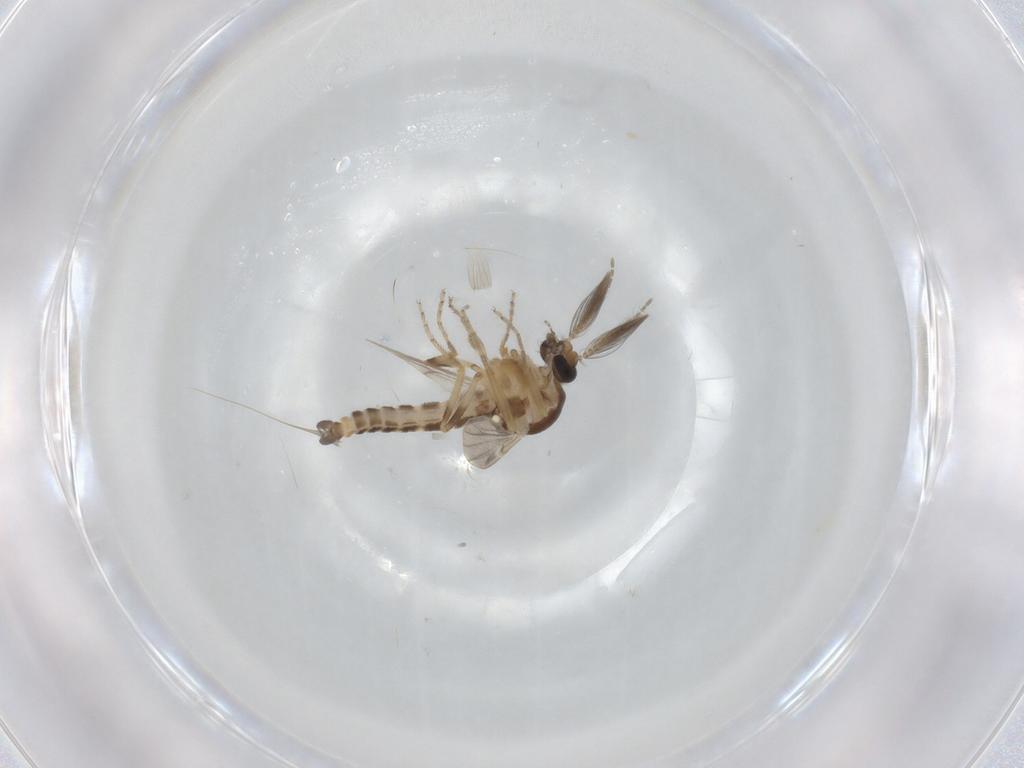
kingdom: Animalia
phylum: Arthropoda
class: Insecta
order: Diptera
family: Ceratopogonidae
